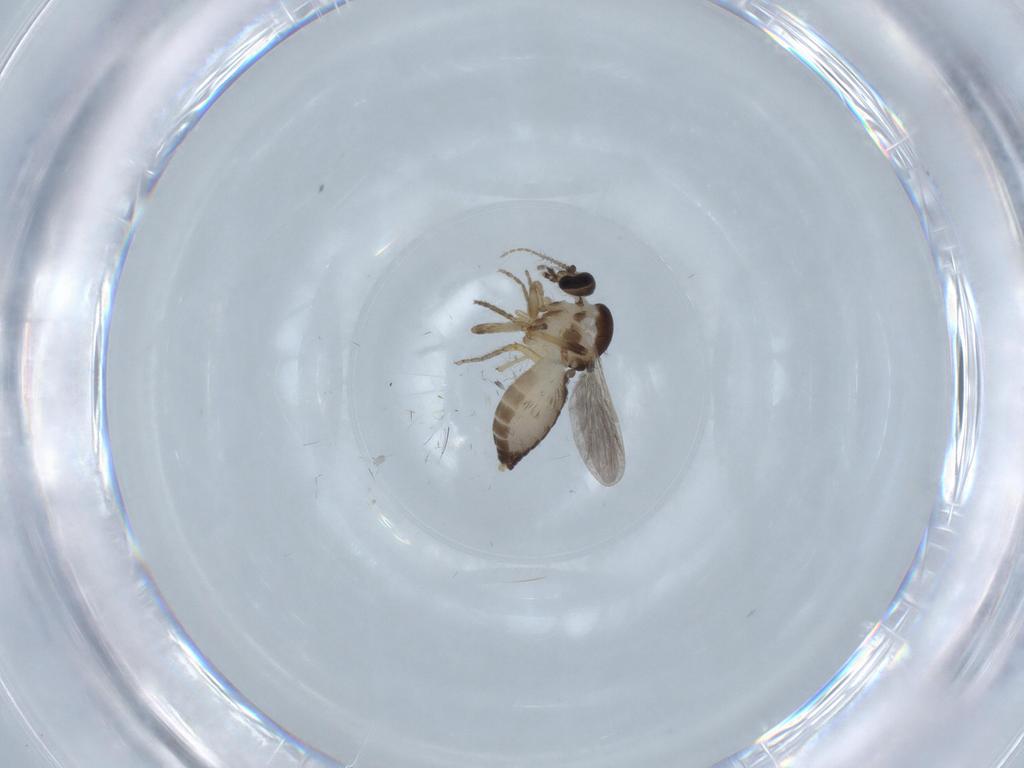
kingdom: Animalia
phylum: Arthropoda
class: Insecta
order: Diptera
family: Ceratopogonidae
